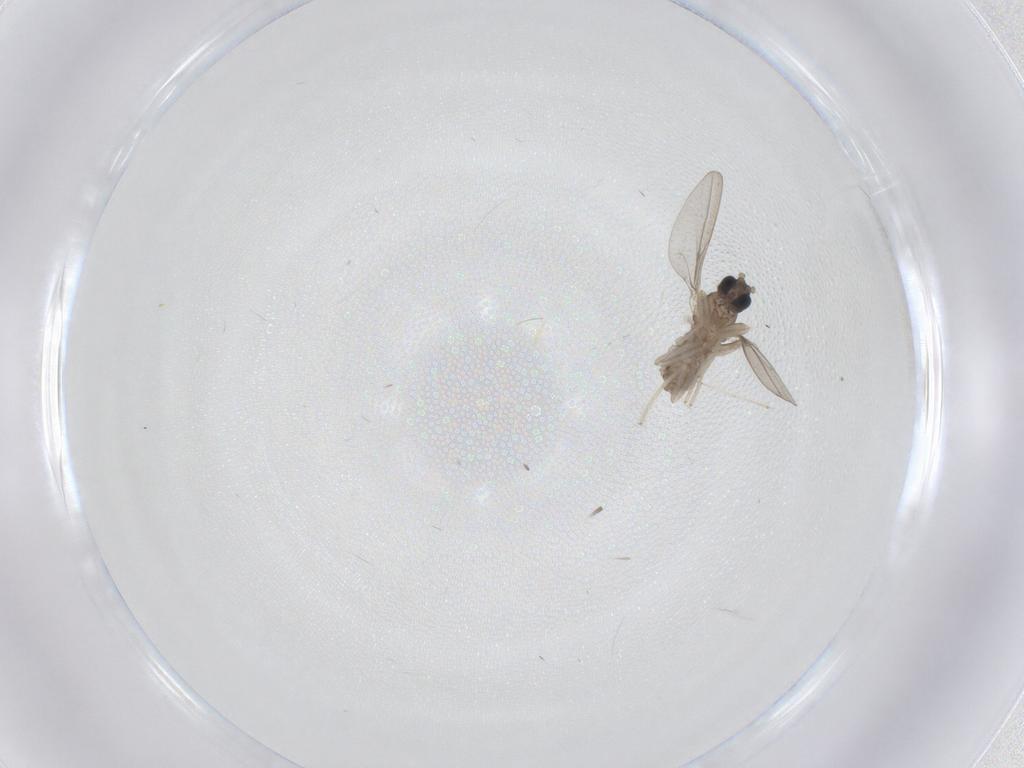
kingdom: Animalia
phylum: Arthropoda
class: Insecta
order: Diptera
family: Cecidomyiidae
